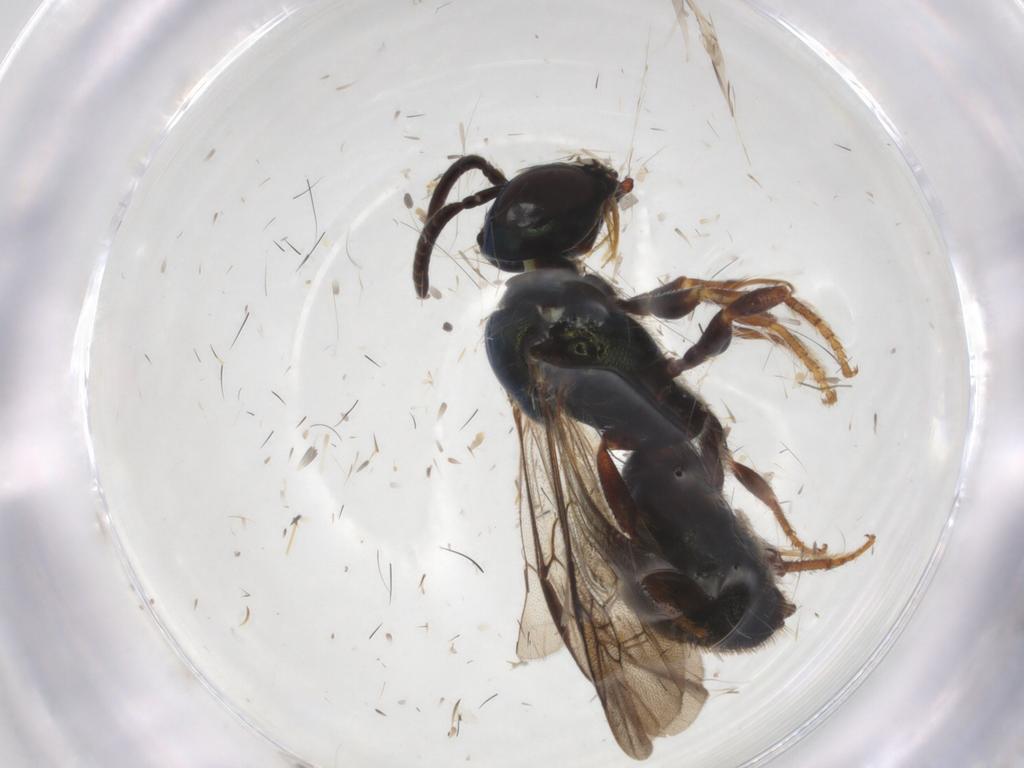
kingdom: Animalia
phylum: Arthropoda
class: Insecta
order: Hymenoptera
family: Apidae
